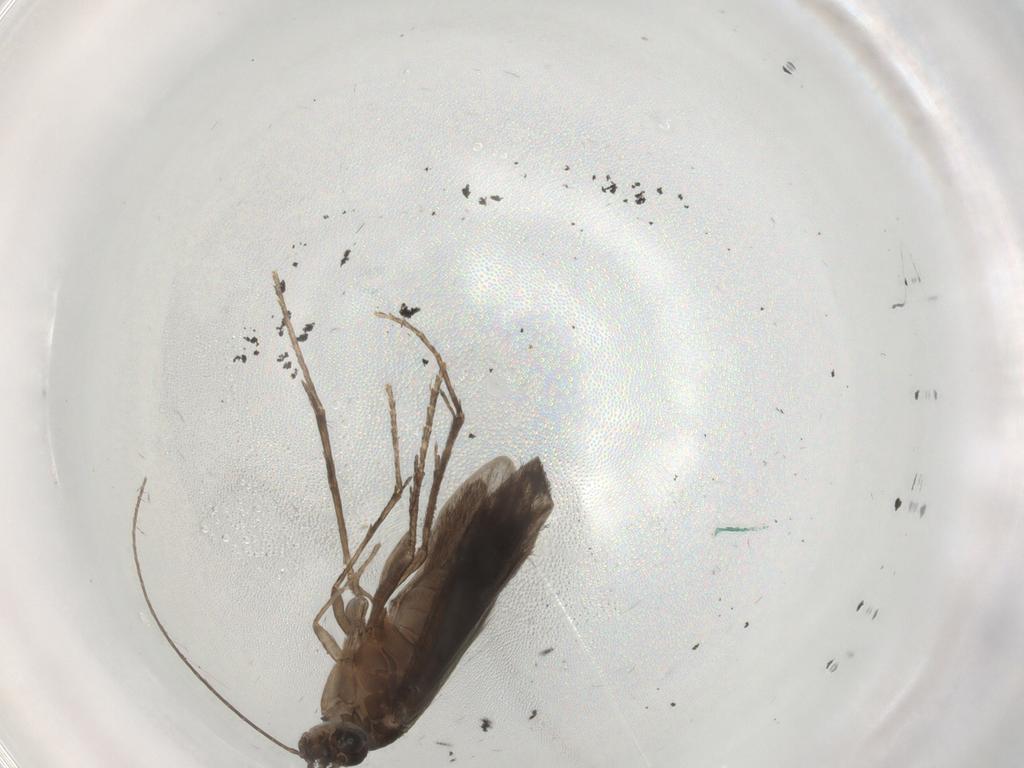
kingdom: Animalia
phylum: Arthropoda
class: Insecta
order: Trichoptera
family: Xiphocentronidae
